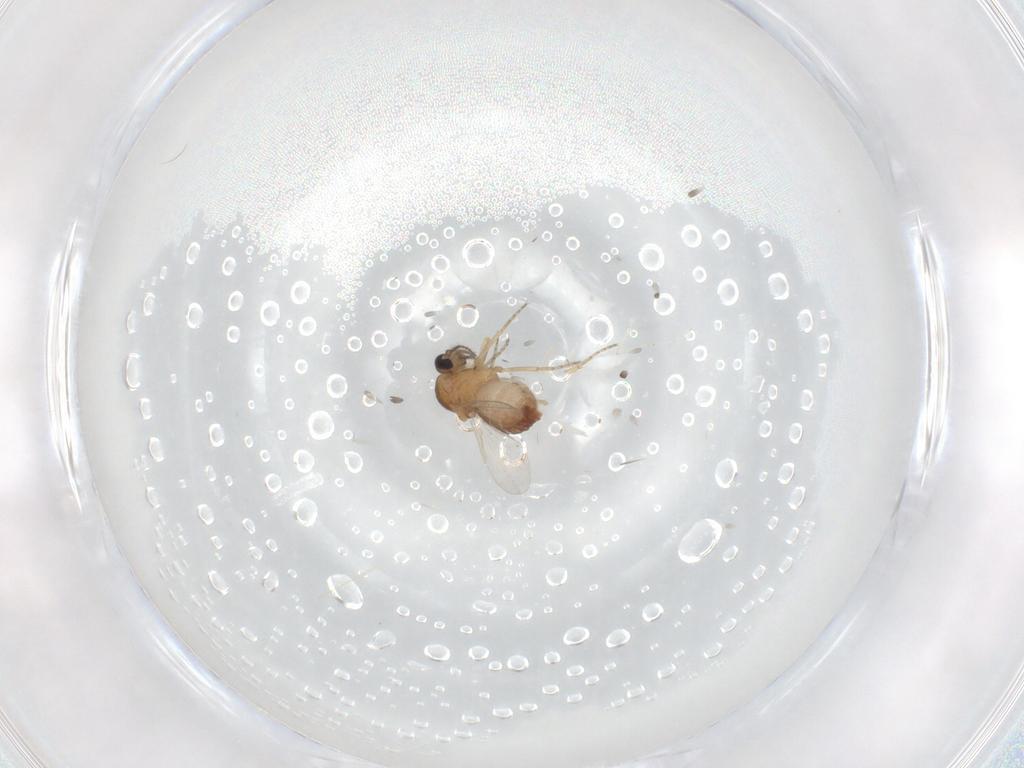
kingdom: Animalia
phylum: Arthropoda
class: Insecta
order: Diptera
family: Ceratopogonidae
